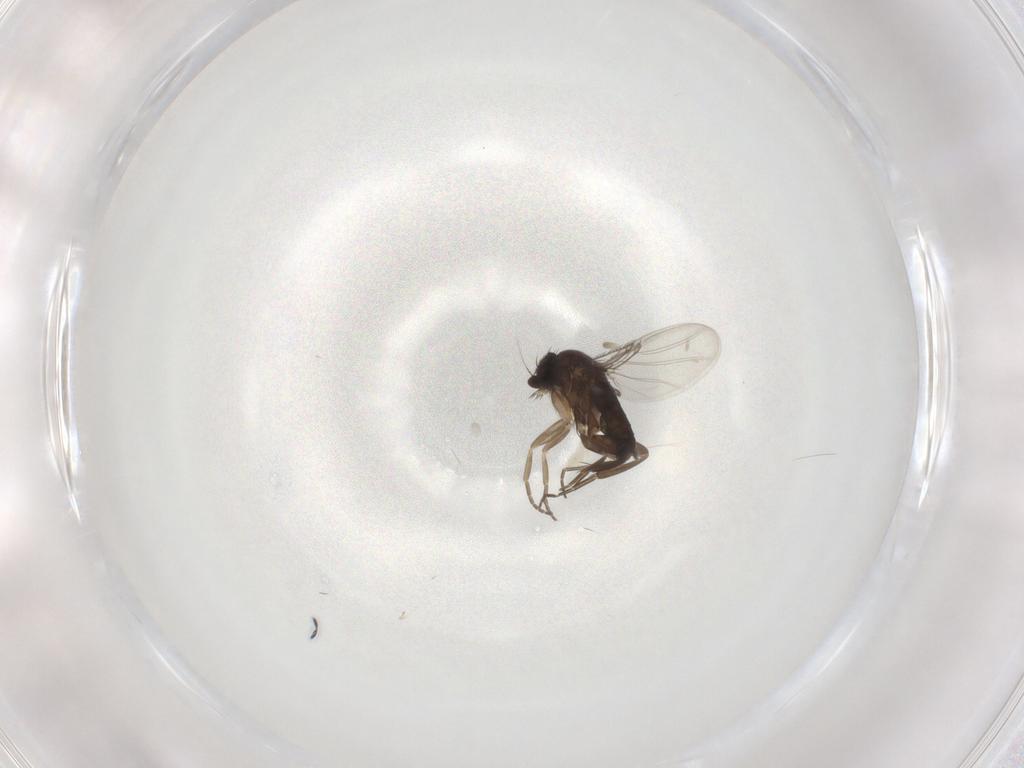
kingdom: Animalia
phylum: Arthropoda
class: Insecta
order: Diptera
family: Phoridae
